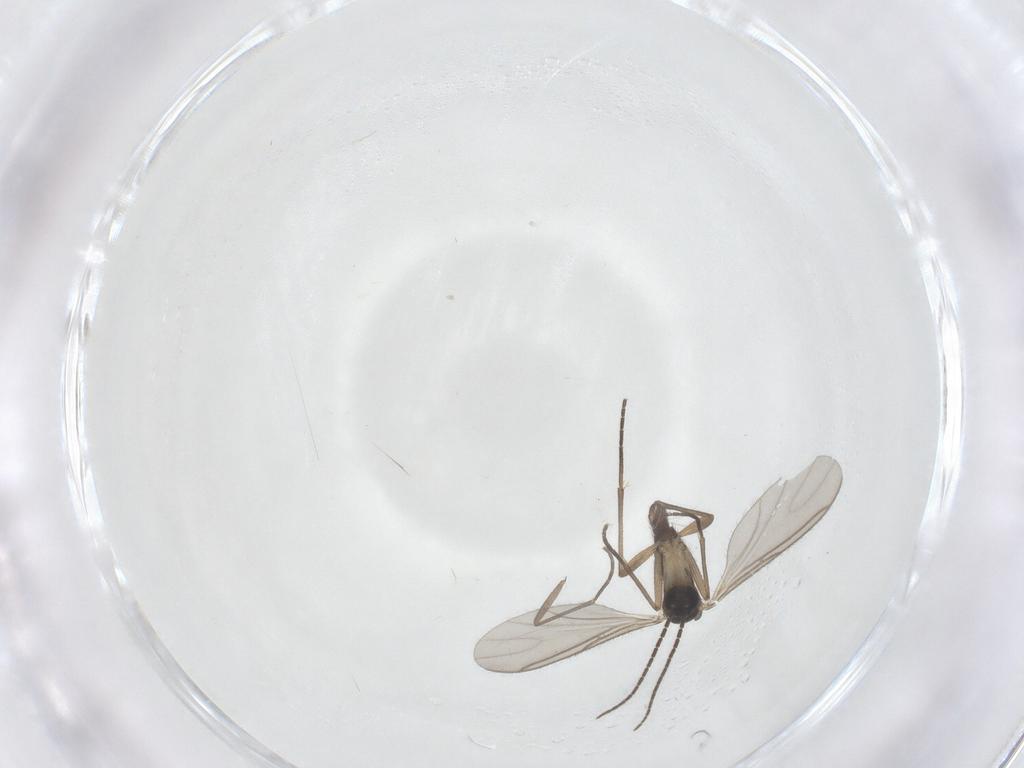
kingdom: Animalia
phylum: Arthropoda
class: Insecta
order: Diptera
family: Sciaridae
